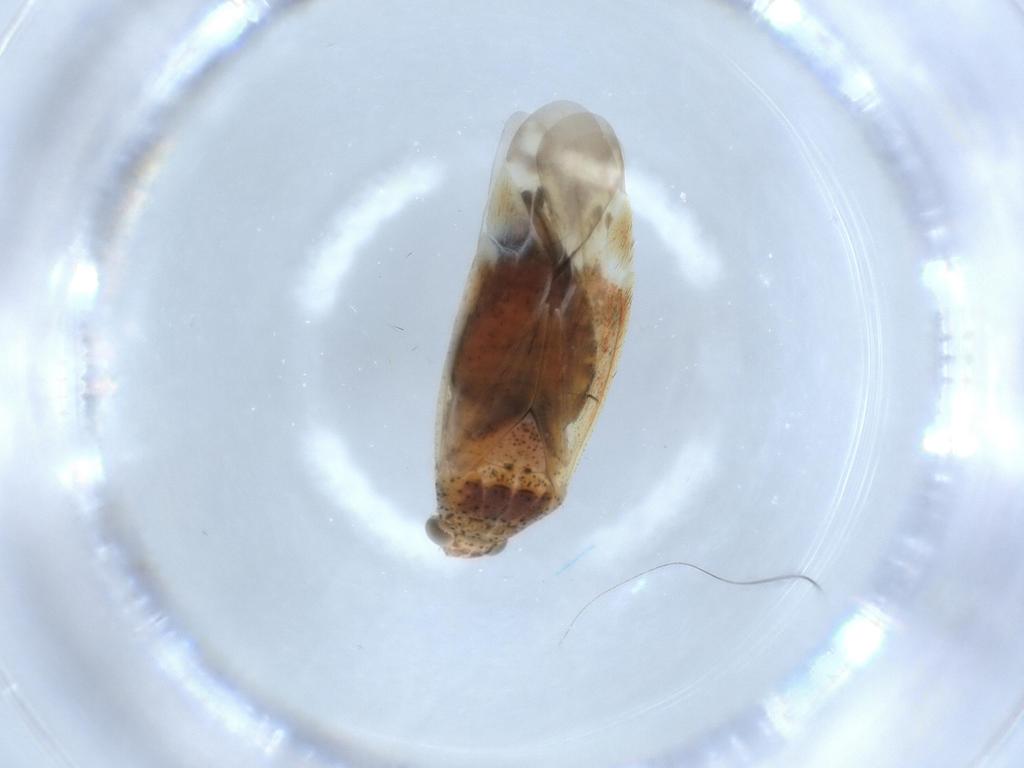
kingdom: Animalia
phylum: Arthropoda
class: Insecta
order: Hemiptera
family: Aphididae
